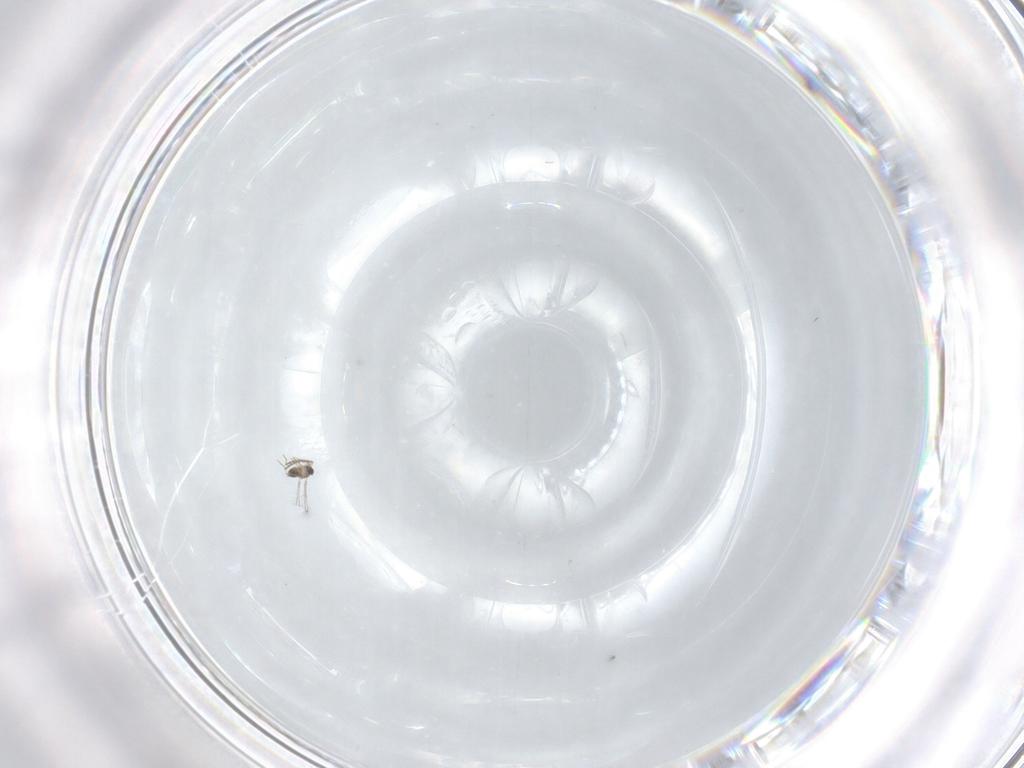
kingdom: Animalia
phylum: Arthropoda
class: Insecta
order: Hymenoptera
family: Mymaridae
